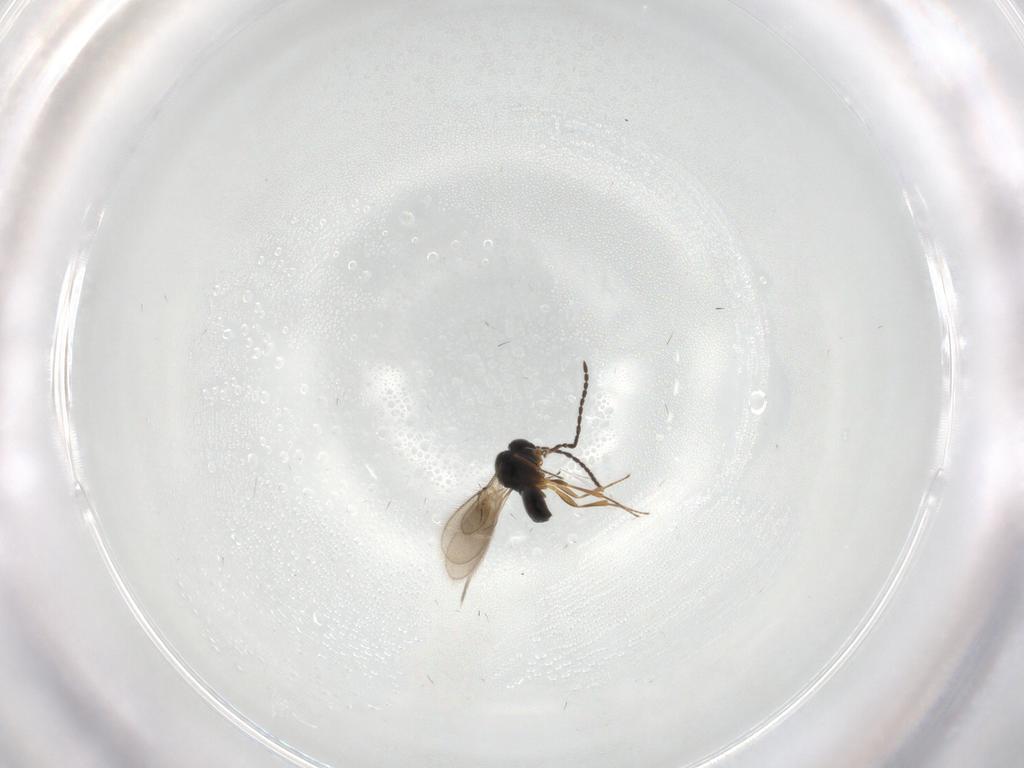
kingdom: Animalia
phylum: Arthropoda
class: Insecta
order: Hymenoptera
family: Scelionidae
